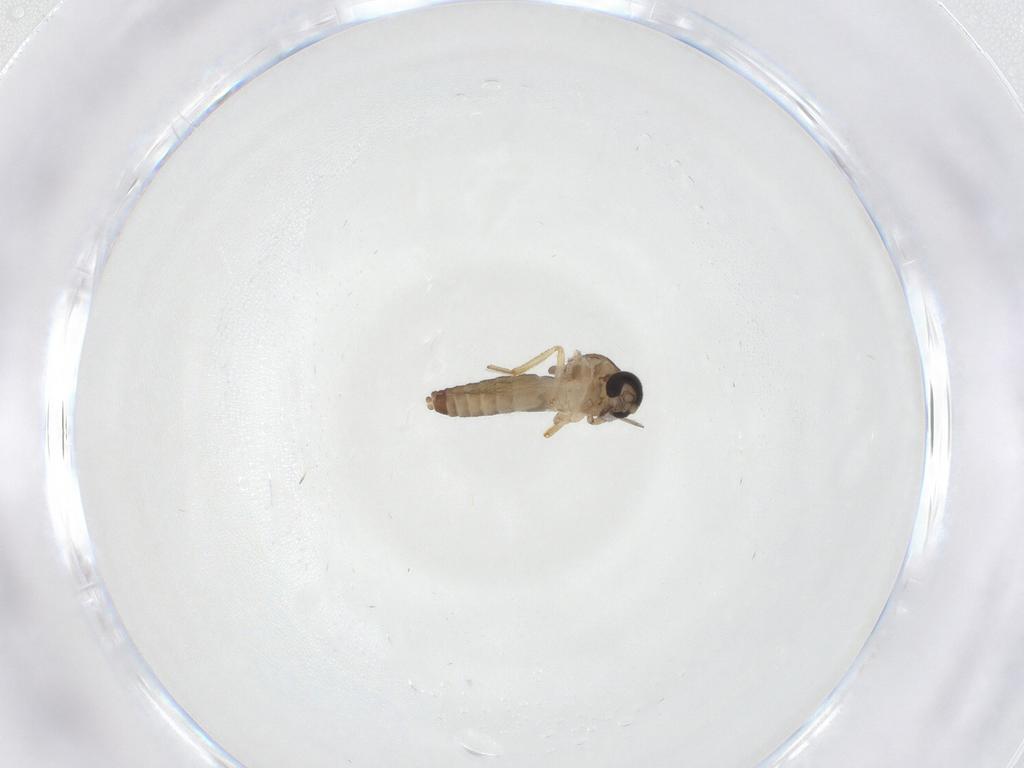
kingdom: Animalia
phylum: Arthropoda
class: Insecta
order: Diptera
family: Ceratopogonidae
